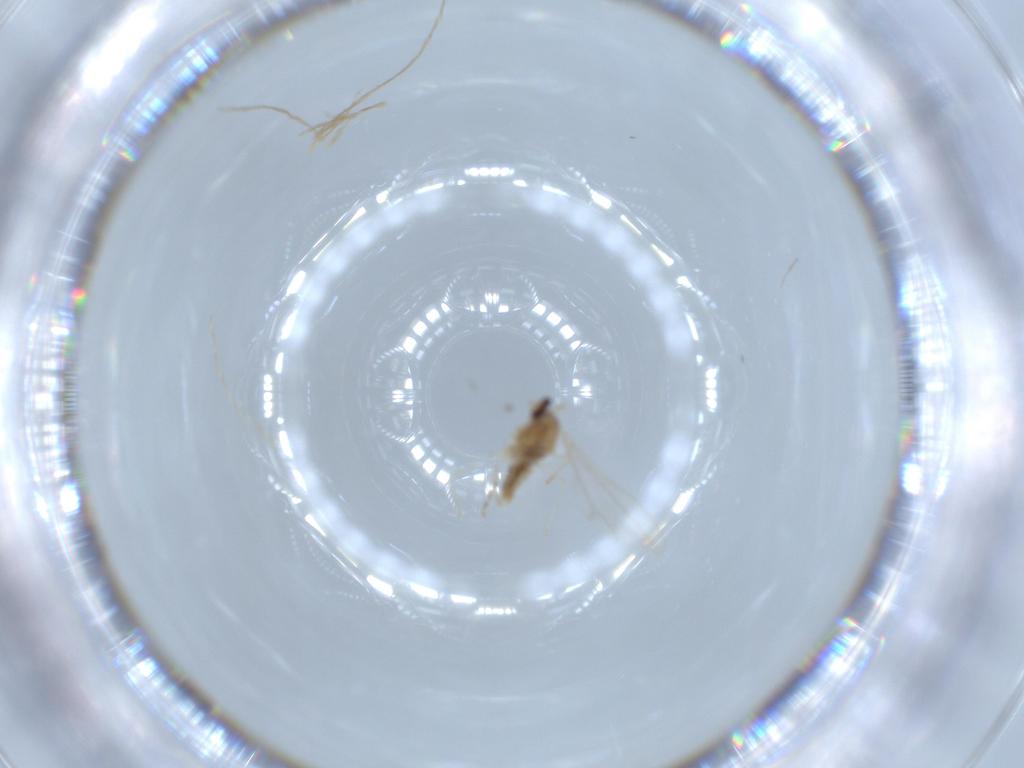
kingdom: Animalia
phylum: Arthropoda
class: Insecta
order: Diptera
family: Cecidomyiidae
